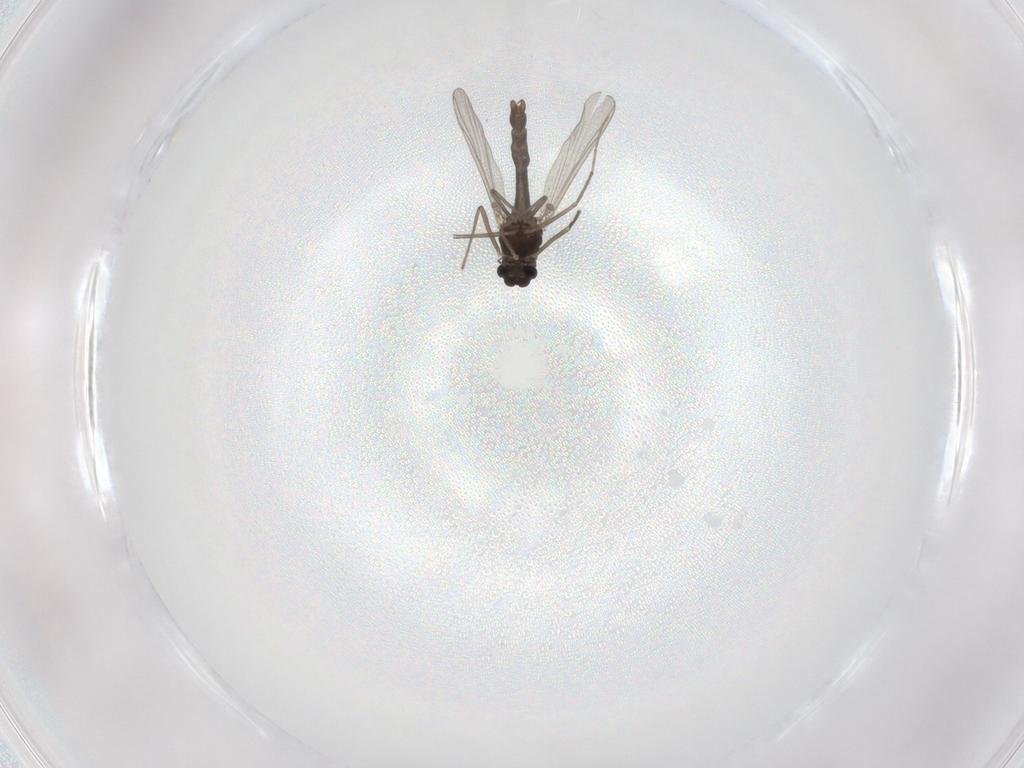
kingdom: Animalia
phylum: Arthropoda
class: Insecta
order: Diptera
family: Chironomidae
